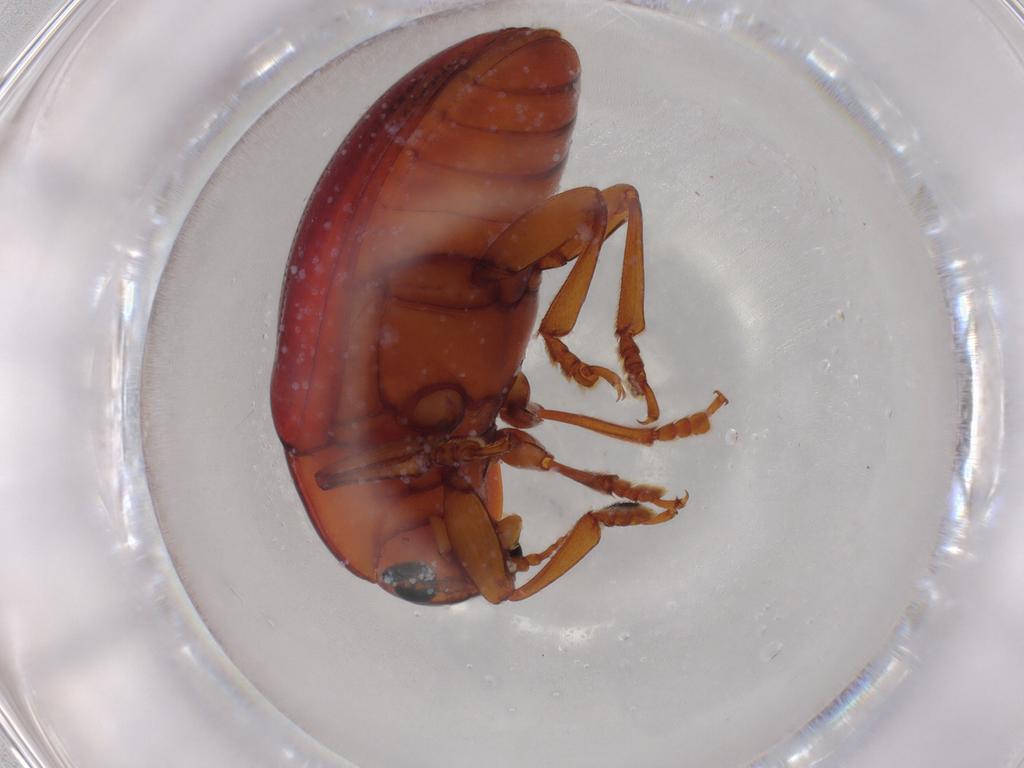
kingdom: Animalia
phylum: Arthropoda
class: Insecta
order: Coleoptera
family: Erotylidae
